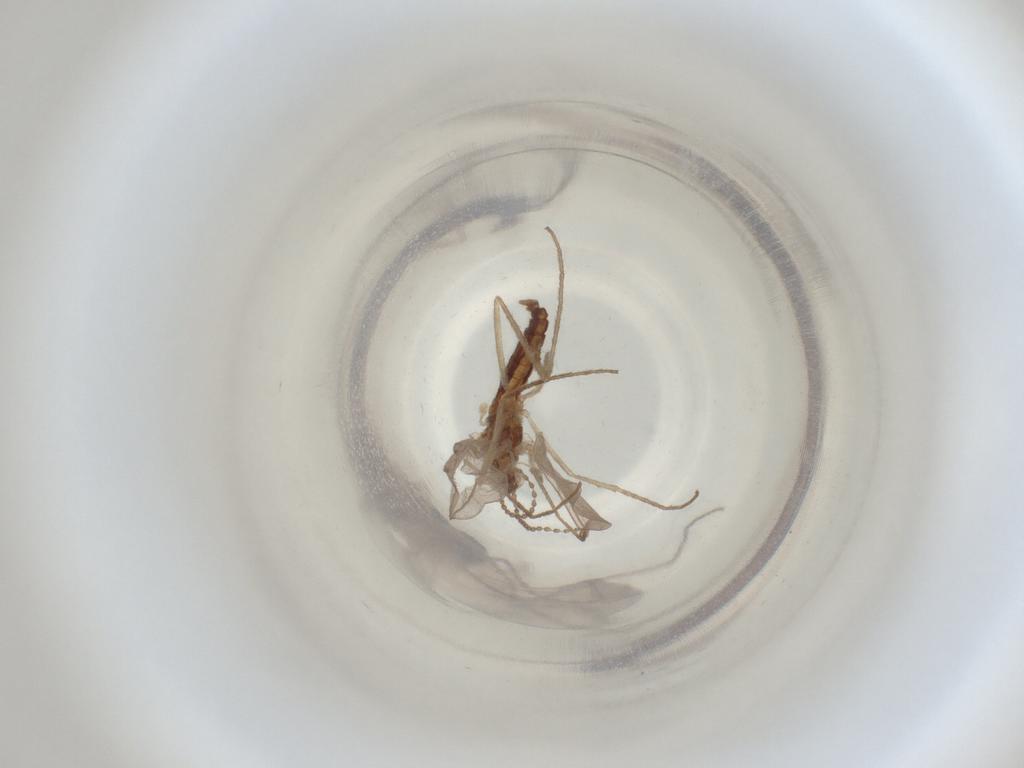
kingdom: Animalia
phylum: Arthropoda
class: Insecta
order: Diptera
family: Cecidomyiidae
